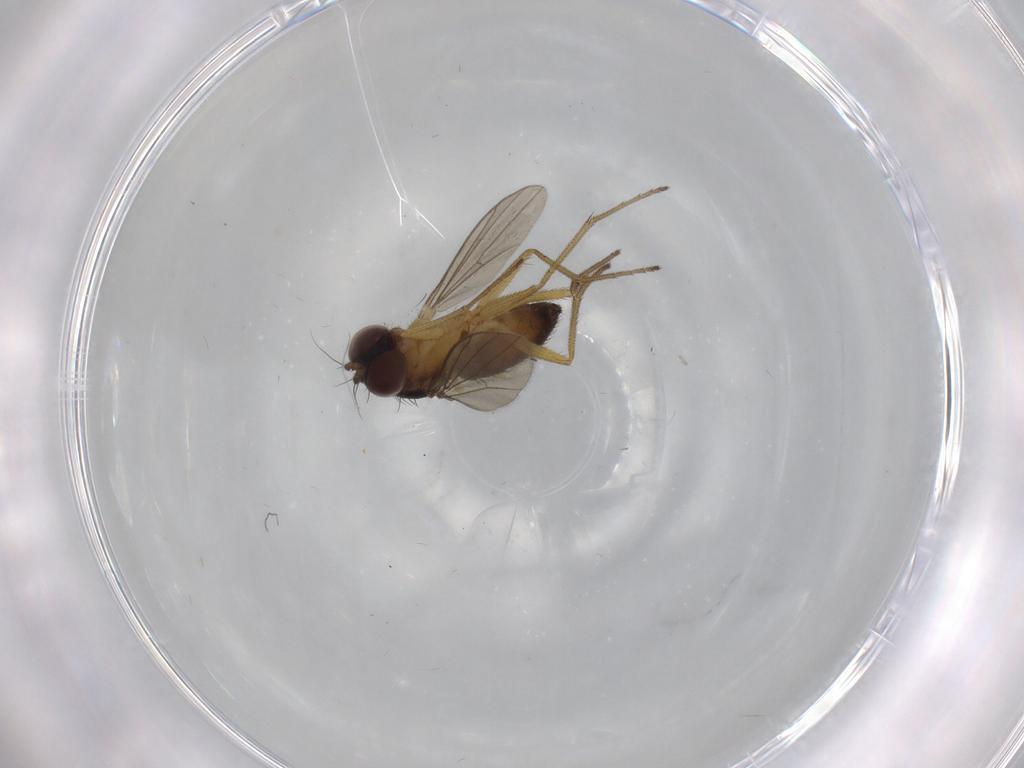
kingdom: Animalia
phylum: Arthropoda
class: Insecta
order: Diptera
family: Dolichopodidae
